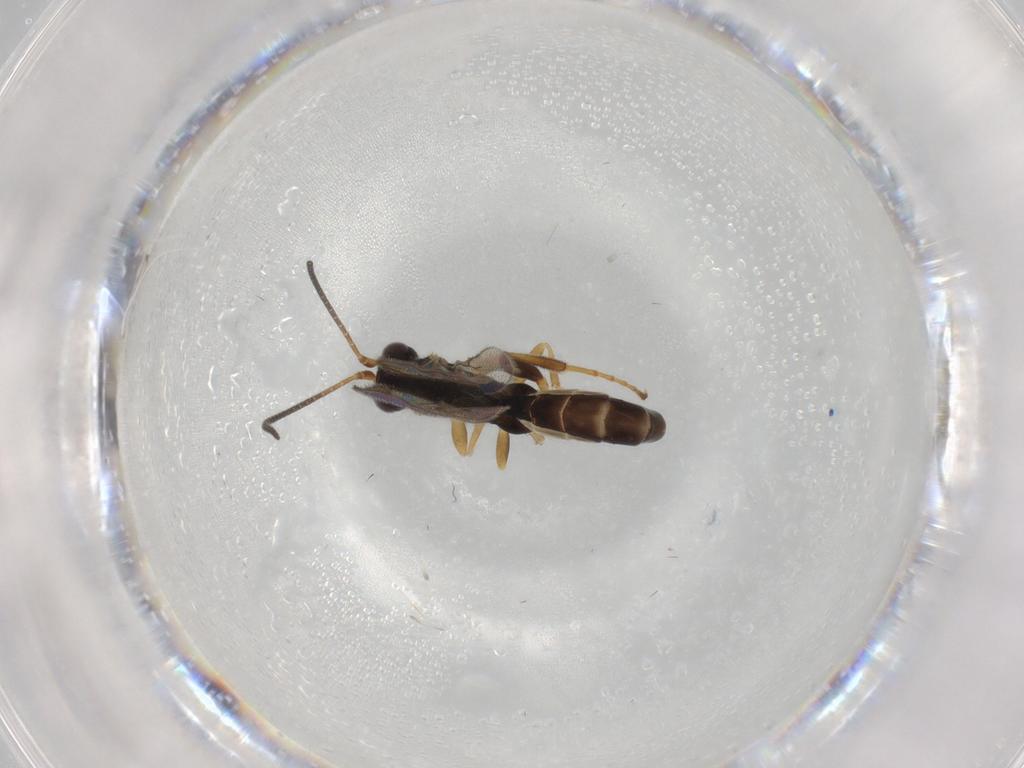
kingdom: Animalia
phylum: Arthropoda
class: Insecta
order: Hymenoptera
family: Ichneumonidae
